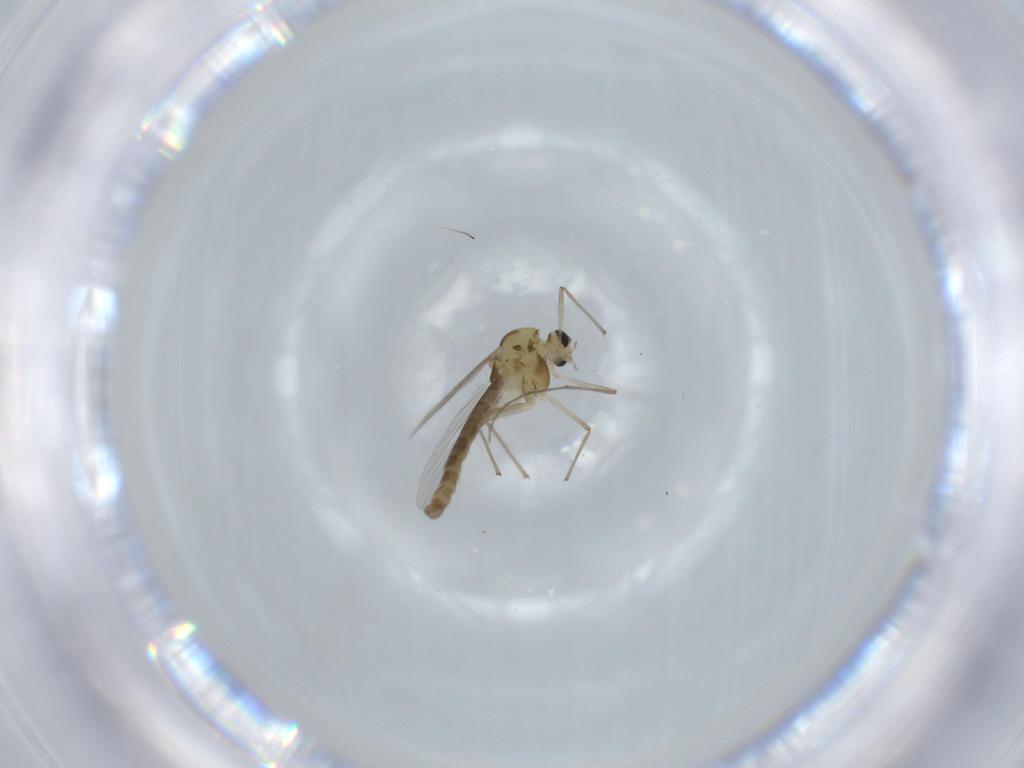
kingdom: Animalia
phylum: Arthropoda
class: Insecta
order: Diptera
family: Chironomidae
